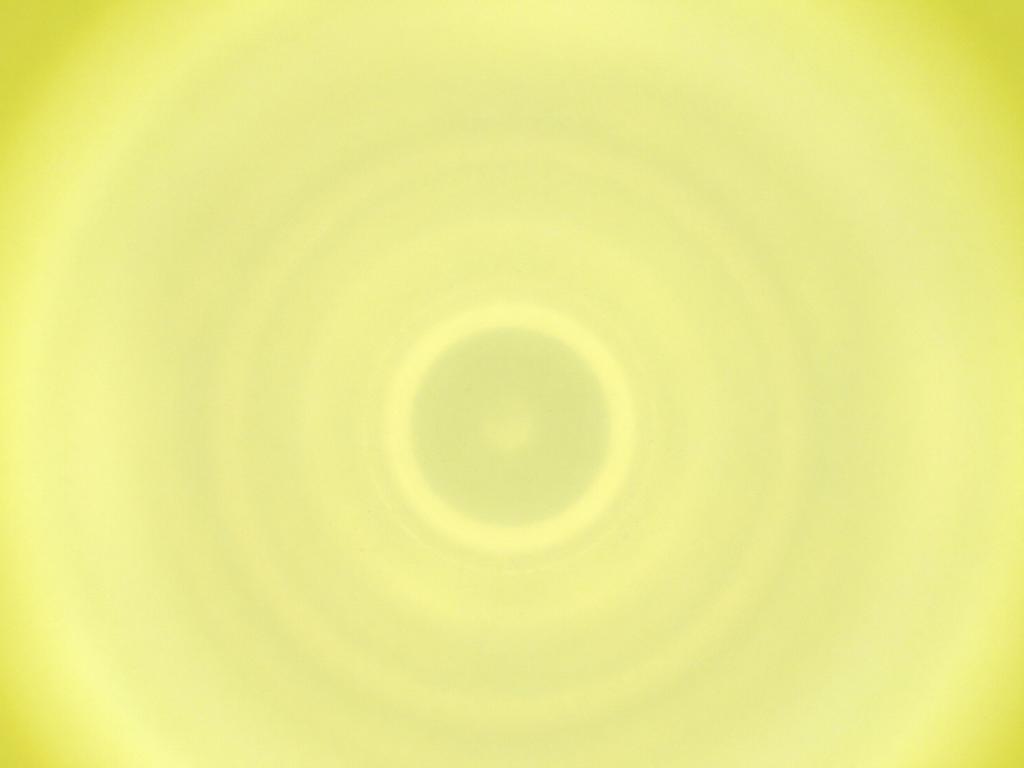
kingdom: Animalia
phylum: Arthropoda
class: Insecta
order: Diptera
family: Cecidomyiidae
